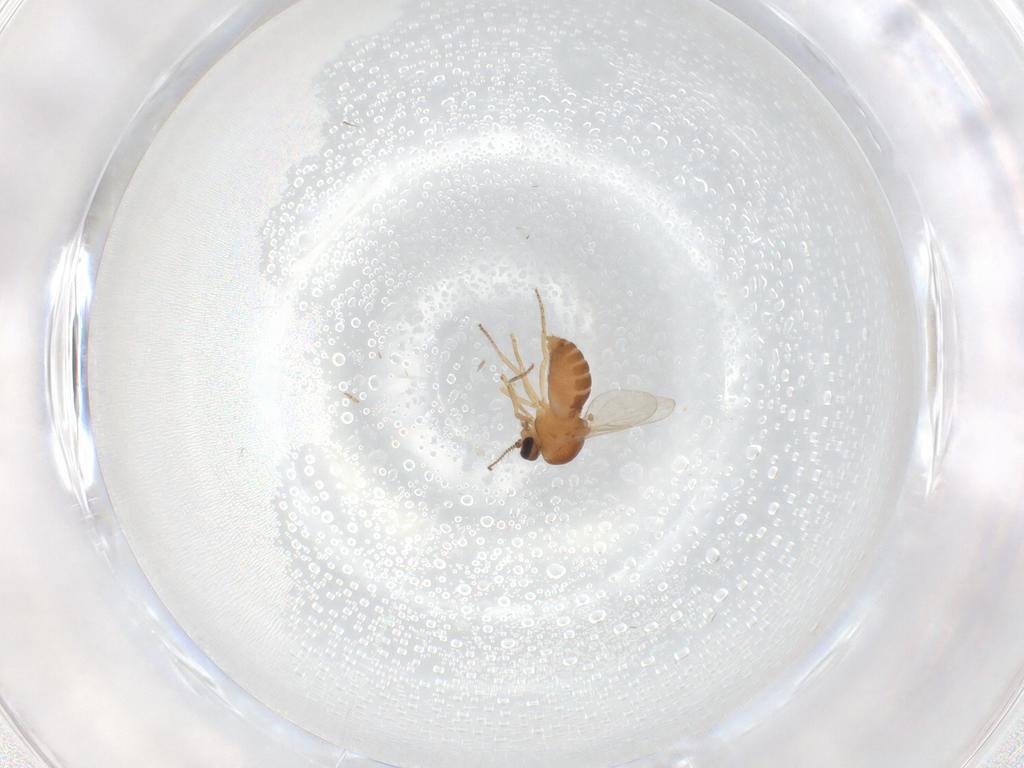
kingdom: Animalia
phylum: Arthropoda
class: Insecta
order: Diptera
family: Ceratopogonidae
